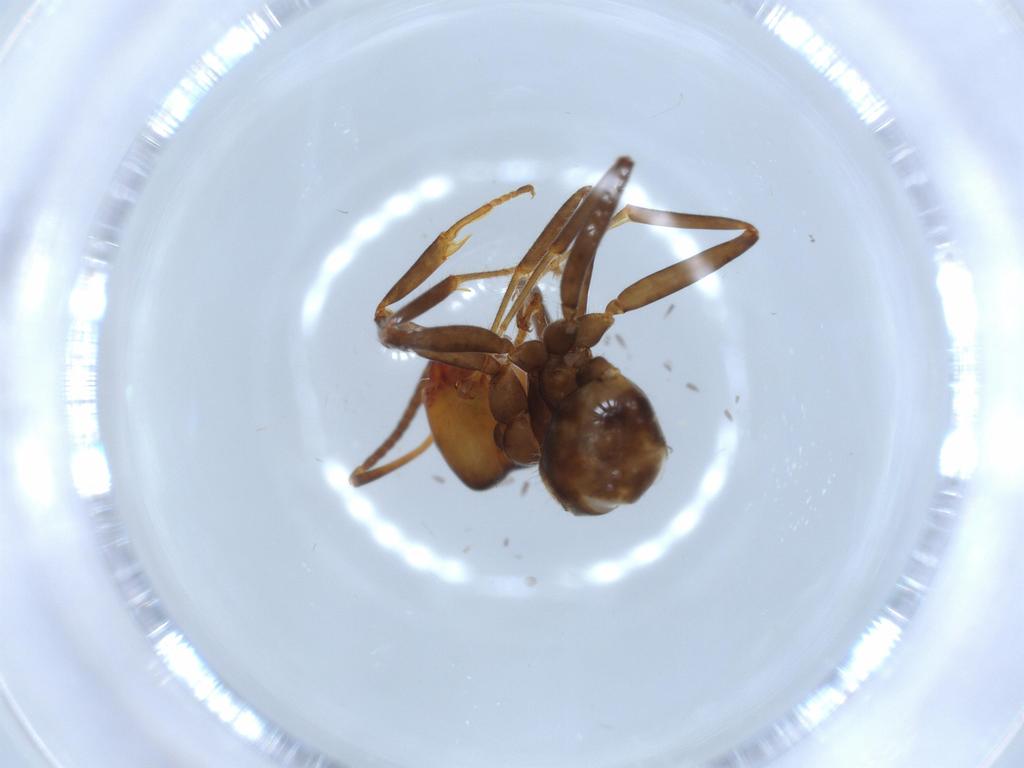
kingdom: Animalia
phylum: Arthropoda
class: Insecta
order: Hymenoptera
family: Formicidae
